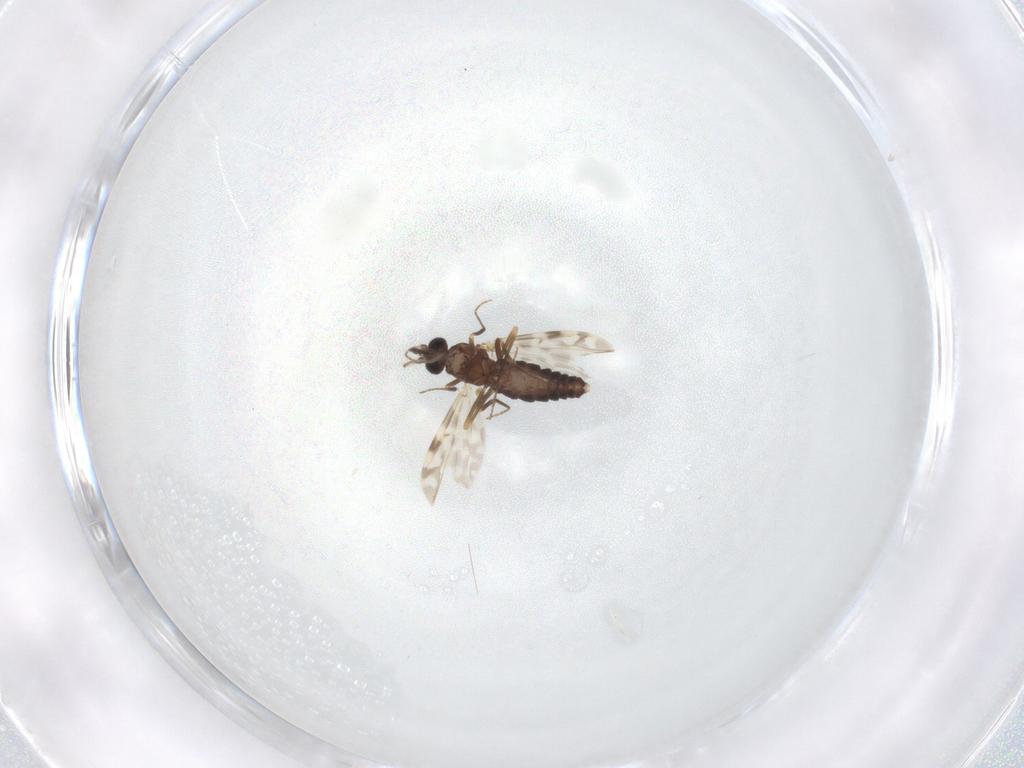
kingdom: Animalia
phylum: Arthropoda
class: Insecta
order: Diptera
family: Ceratopogonidae
